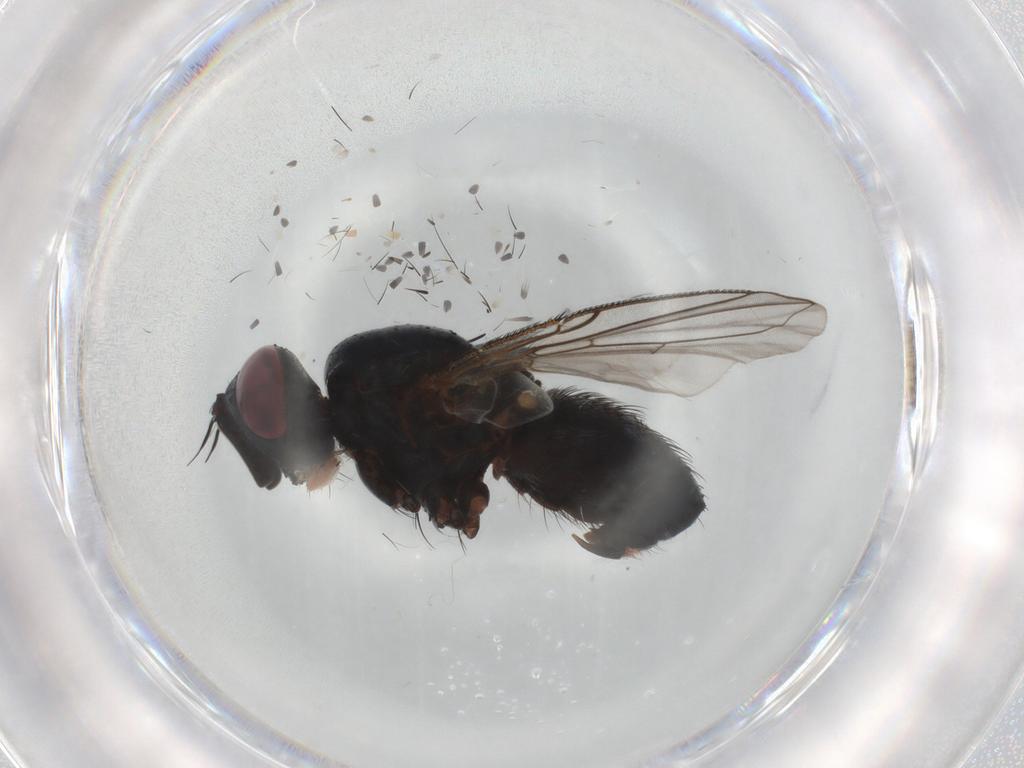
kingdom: Animalia
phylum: Arthropoda
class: Insecta
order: Diptera
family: Tachinidae
